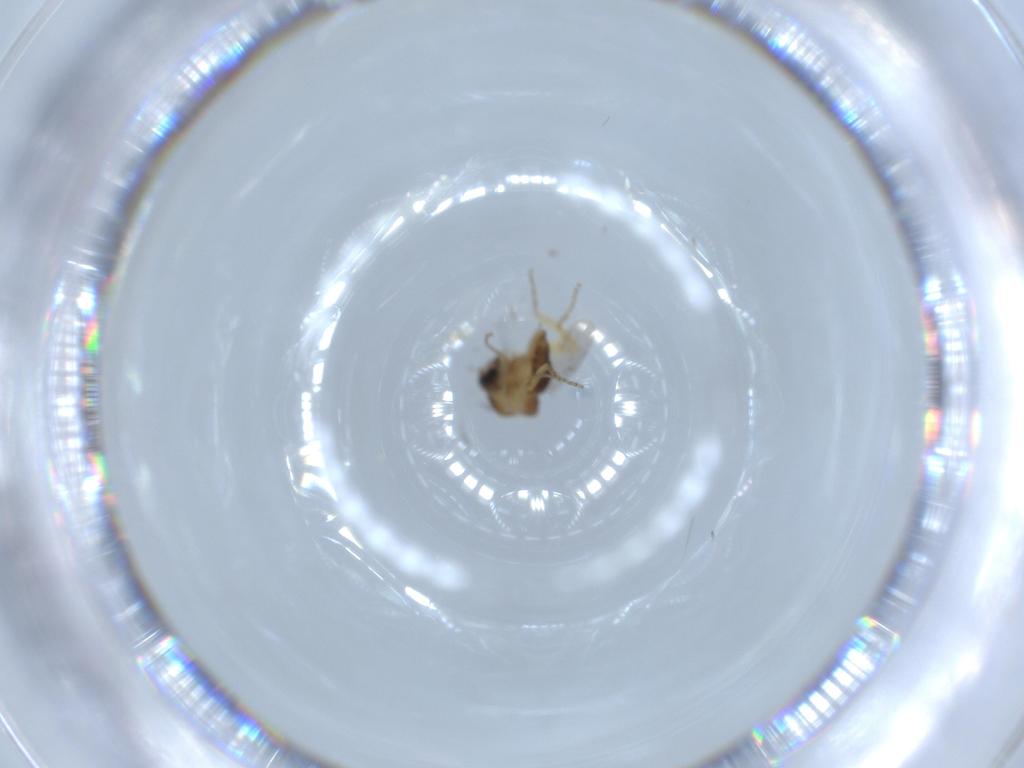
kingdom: Animalia
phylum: Arthropoda
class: Insecta
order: Diptera
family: Ceratopogonidae
